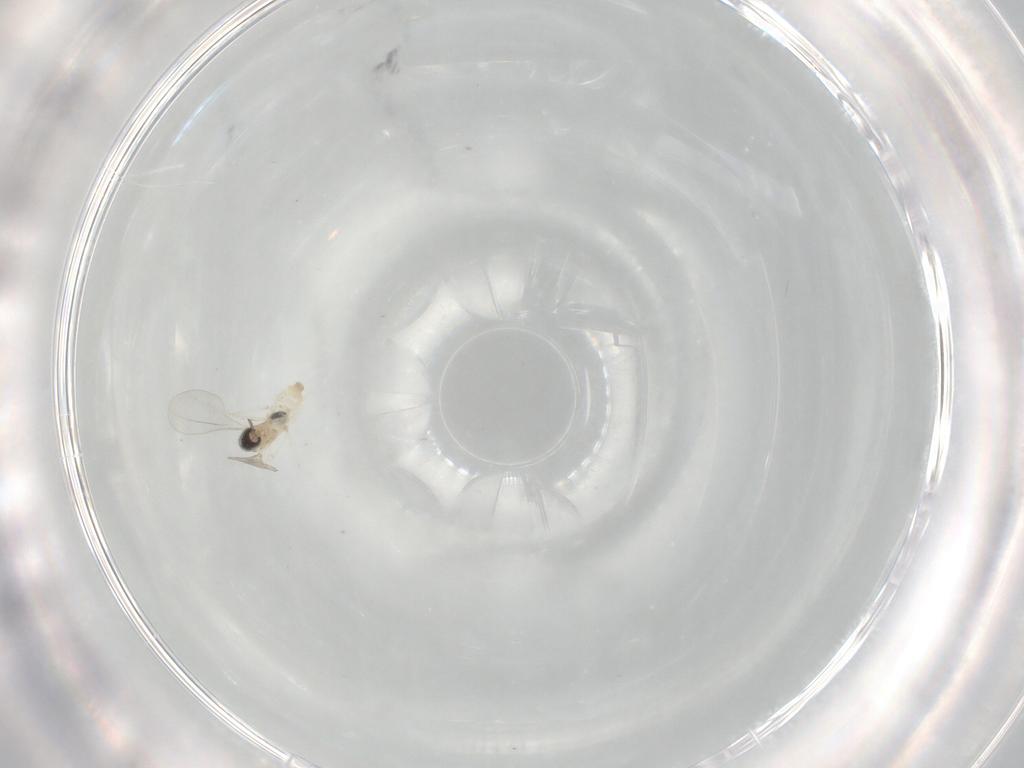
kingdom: Animalia
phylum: Arthropoda
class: Insecta
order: Diptera
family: Cecidomyiidae
